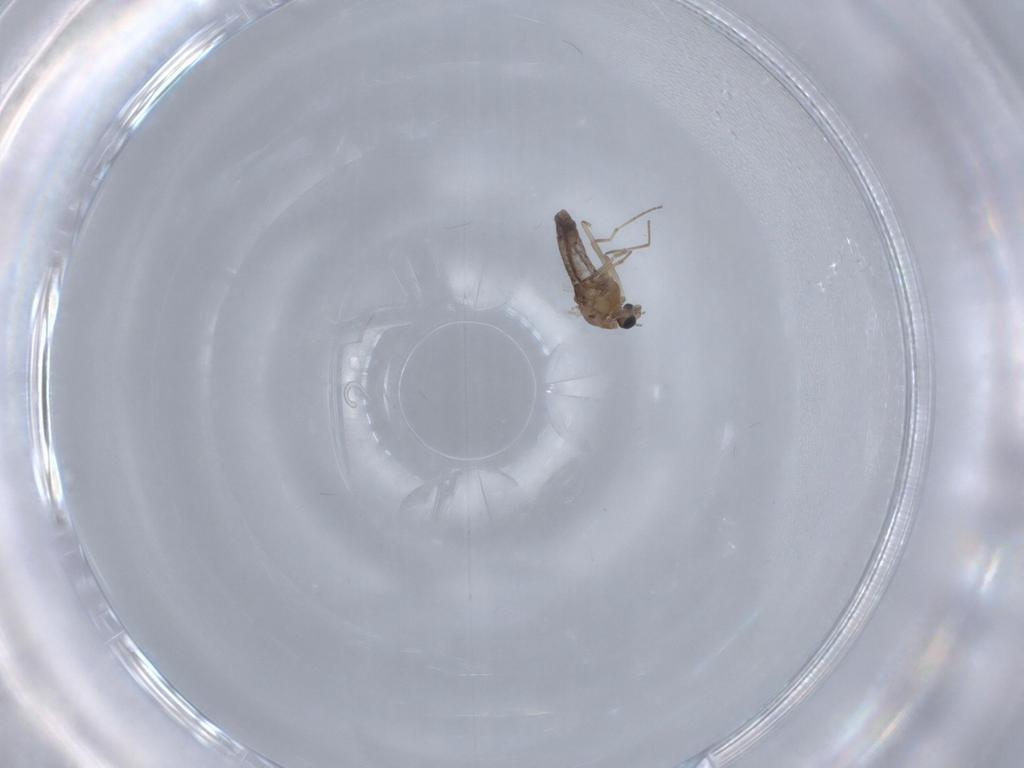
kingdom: Animalia
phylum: Arthropoda
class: Insecta
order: Diptera
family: Chironomidae
